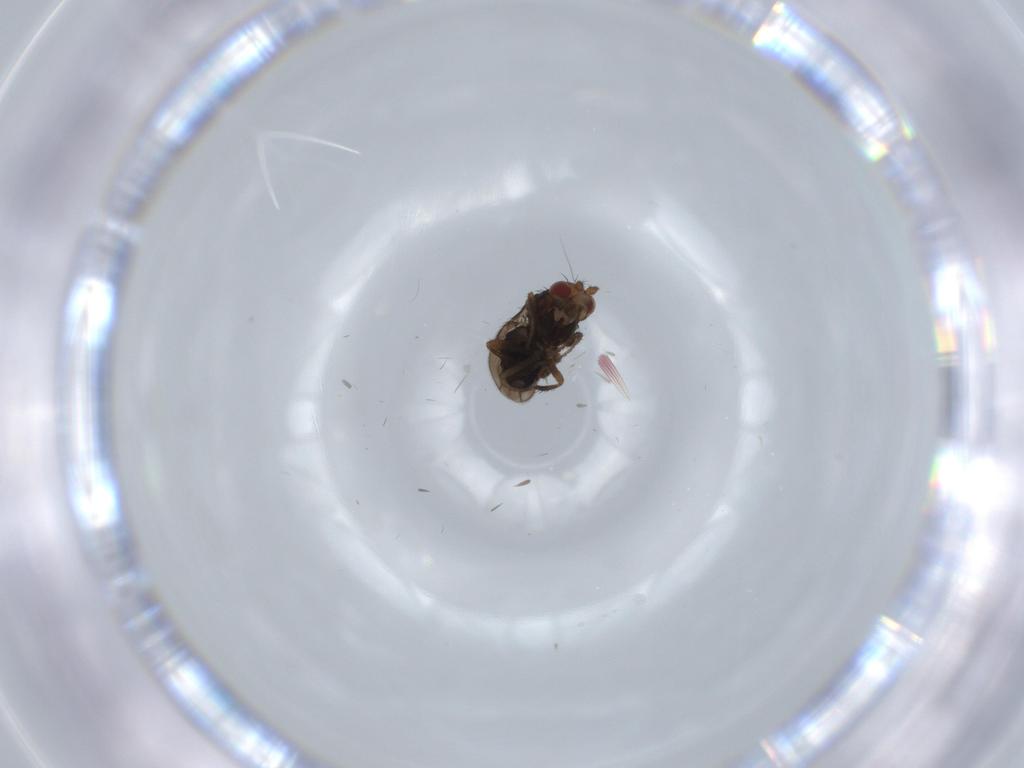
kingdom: Animalia
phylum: Arthropoda
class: Insecta
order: Diptera
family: Sphaeroceridae
